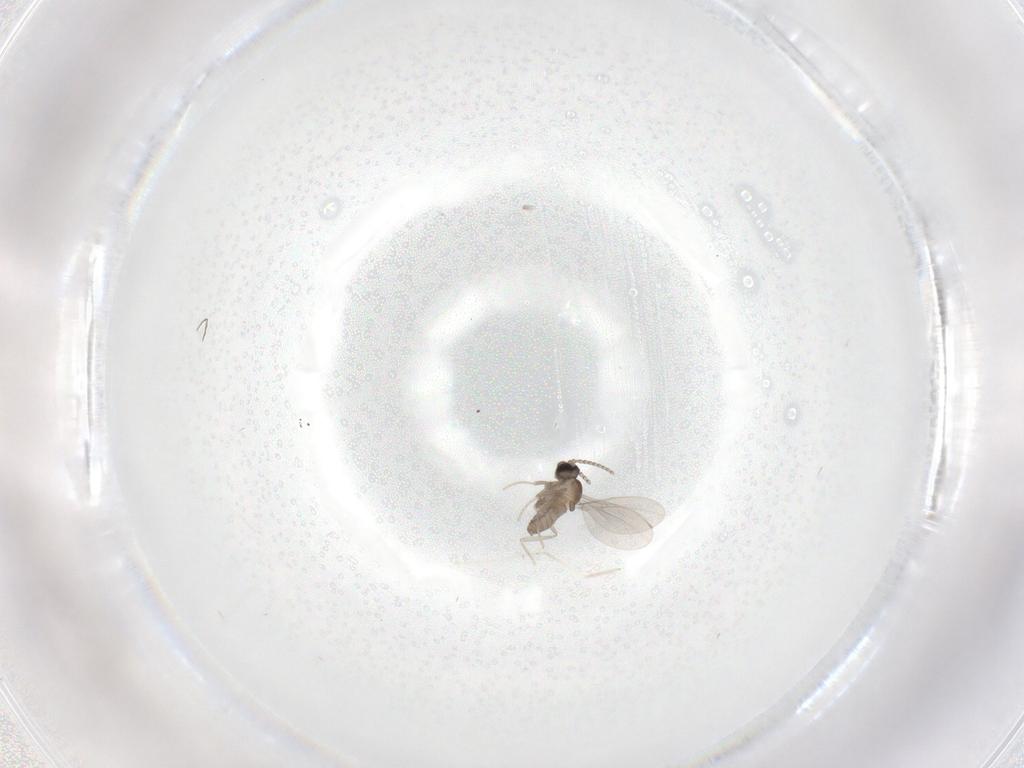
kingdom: Animalia
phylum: Arthropoda
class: Insecta
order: Diptera
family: Cecidomyiidae
